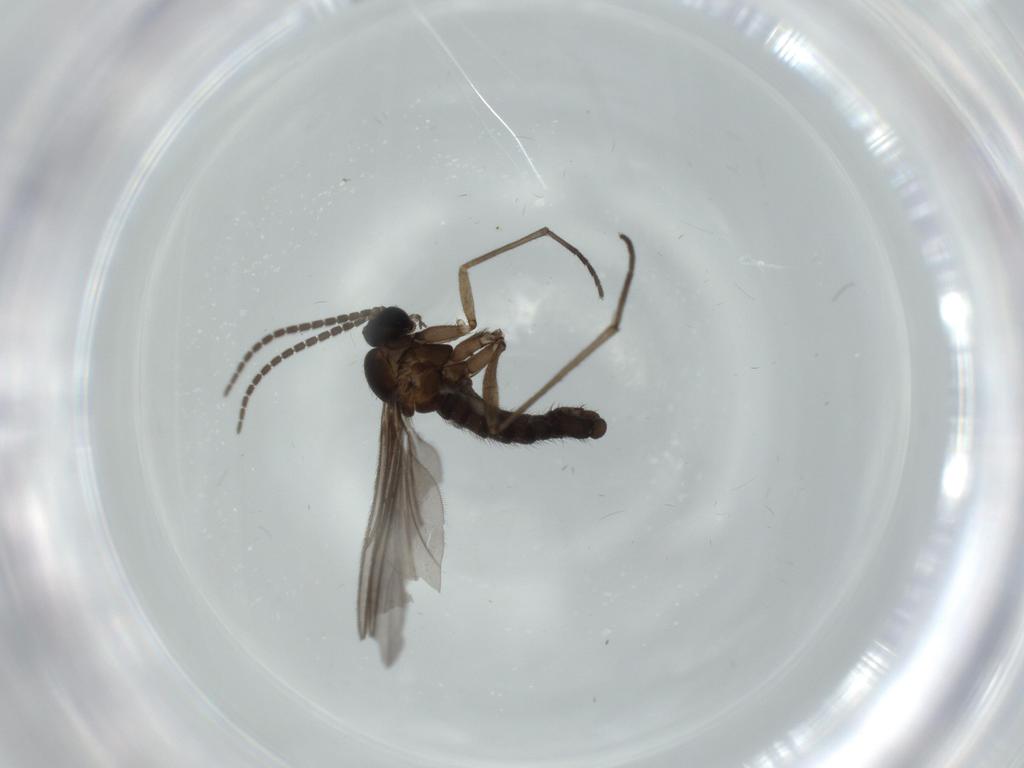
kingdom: Animalia
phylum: Arthropoda
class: Insecta
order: Diptera
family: Sciaridae
